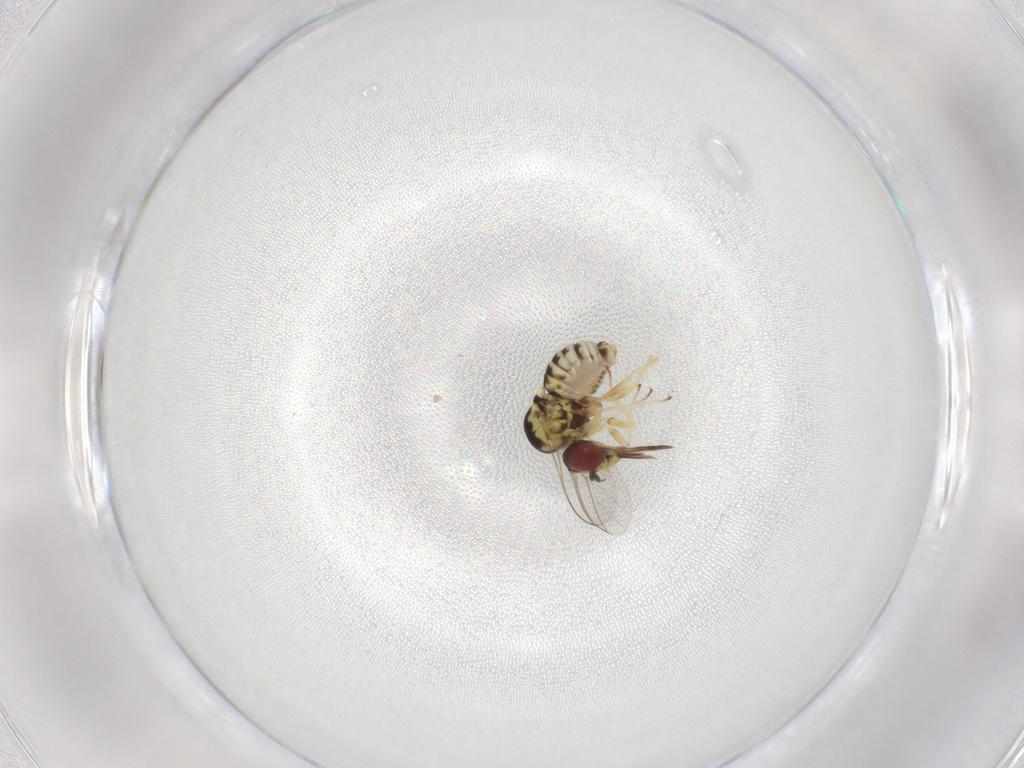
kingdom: Animalia
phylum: Arthropoda
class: Insecta
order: Diptera
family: Bombyliidae
